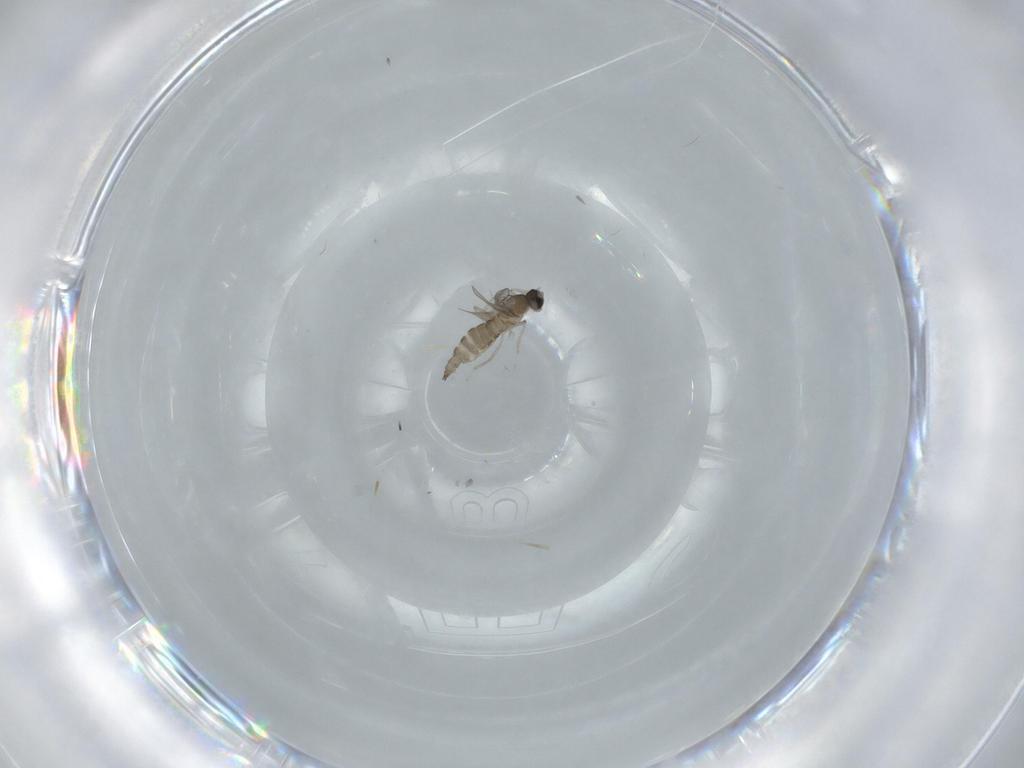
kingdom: Animalia
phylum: Arthropoda
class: Insecta
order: Diptera
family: Cecidomyiidae
